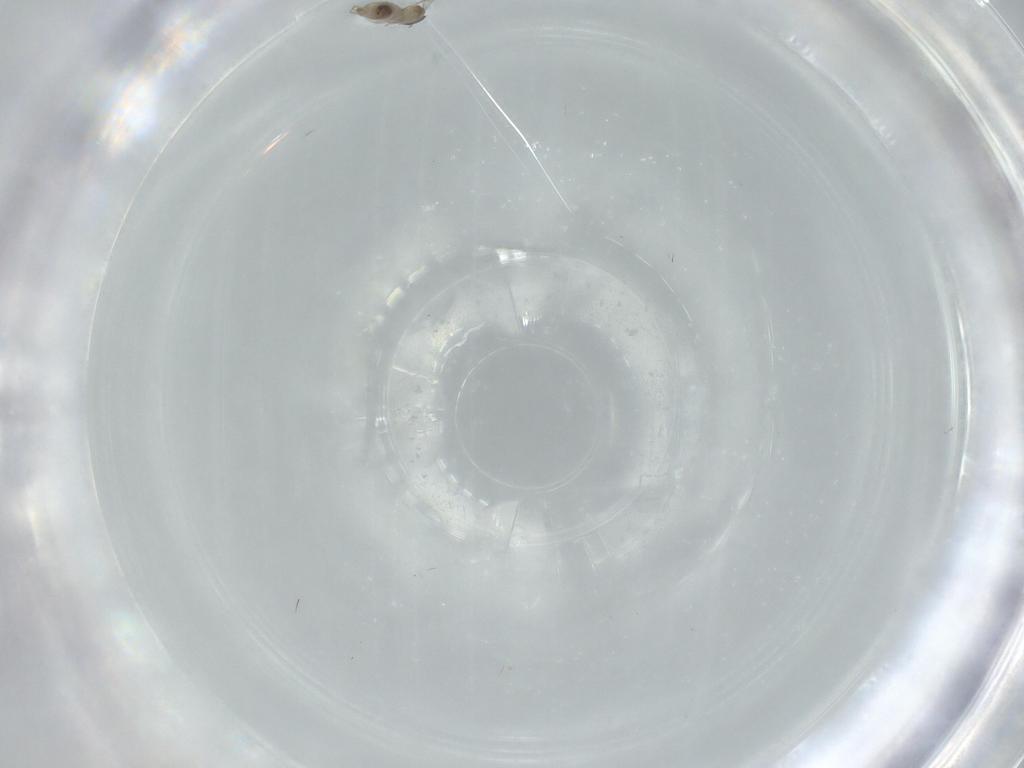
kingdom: Animalia
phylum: Arthropoda
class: Insecta
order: Diptera
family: Cecidomyiidae
